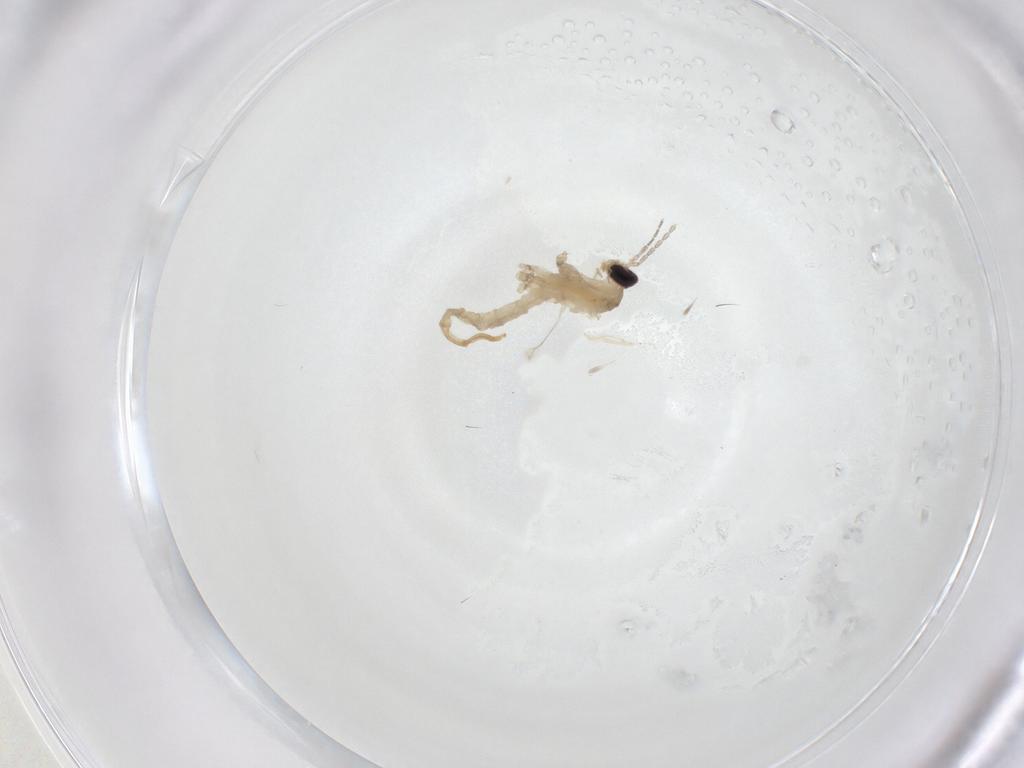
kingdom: Animalia
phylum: Arthropoda
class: Insecta
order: Diptera
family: Cecidomyiidae
